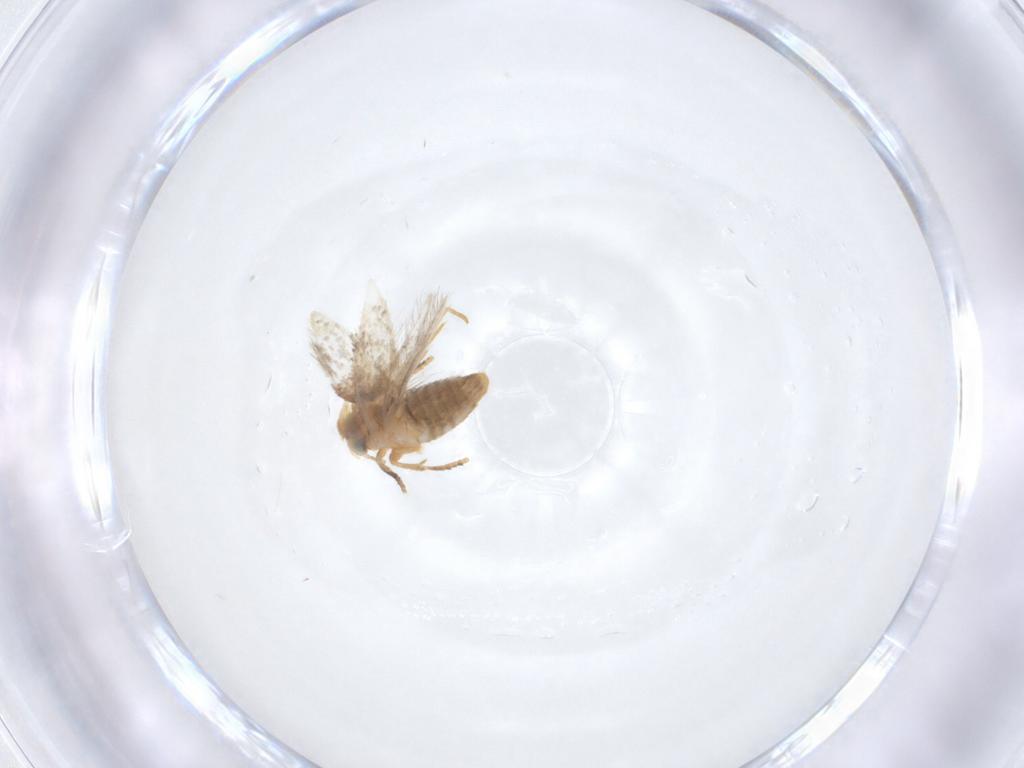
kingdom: Animalia
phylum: Arthropoda
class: Insecta
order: Lepidoptera
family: Nepticulidae
